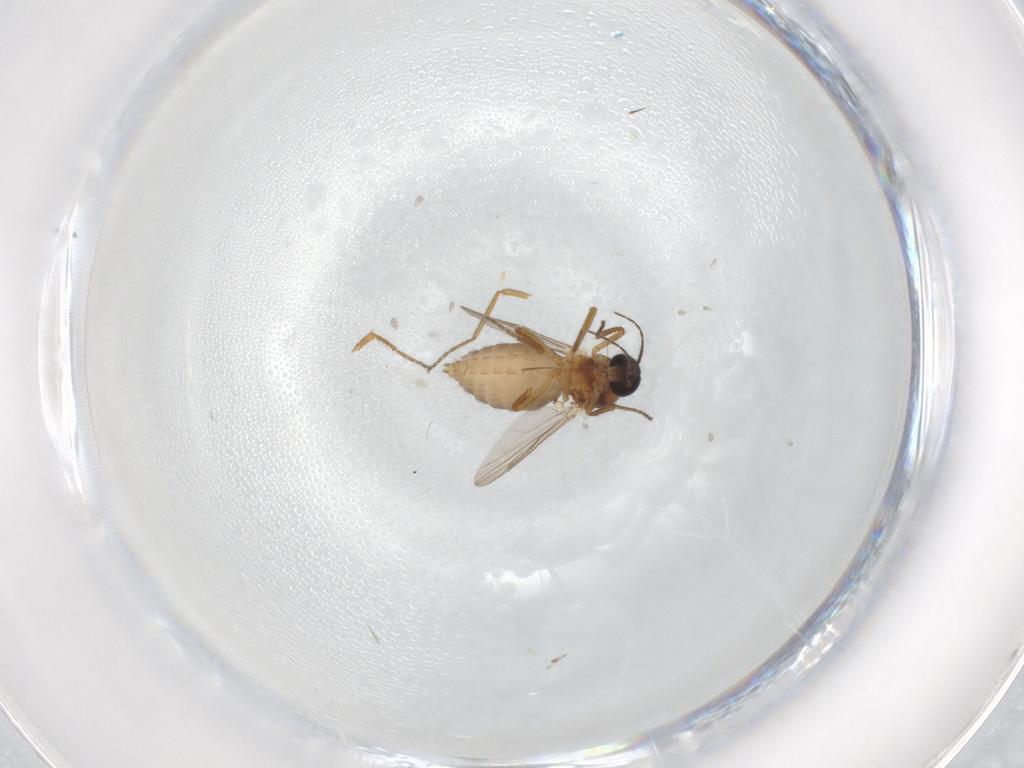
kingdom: Animalia
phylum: Arthropoda
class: Insecta
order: Diptera
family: Ceratopogonidae
